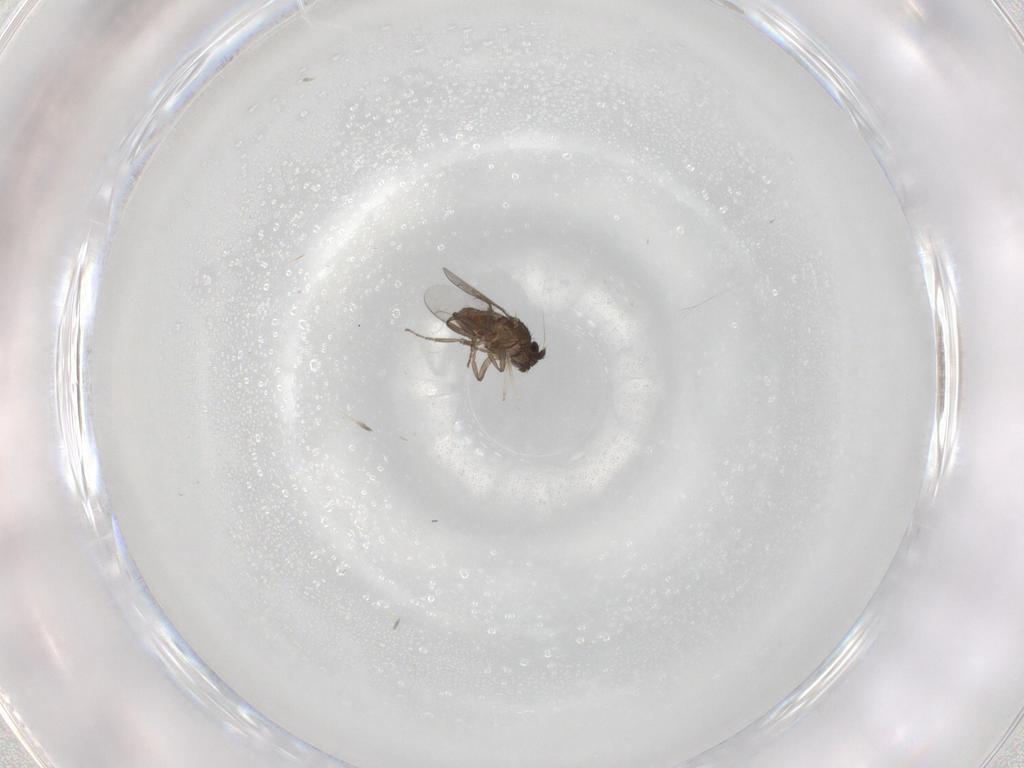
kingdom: Animalia
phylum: Arthropoda
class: Insecta
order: Diptera
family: Cecidomyiidae
